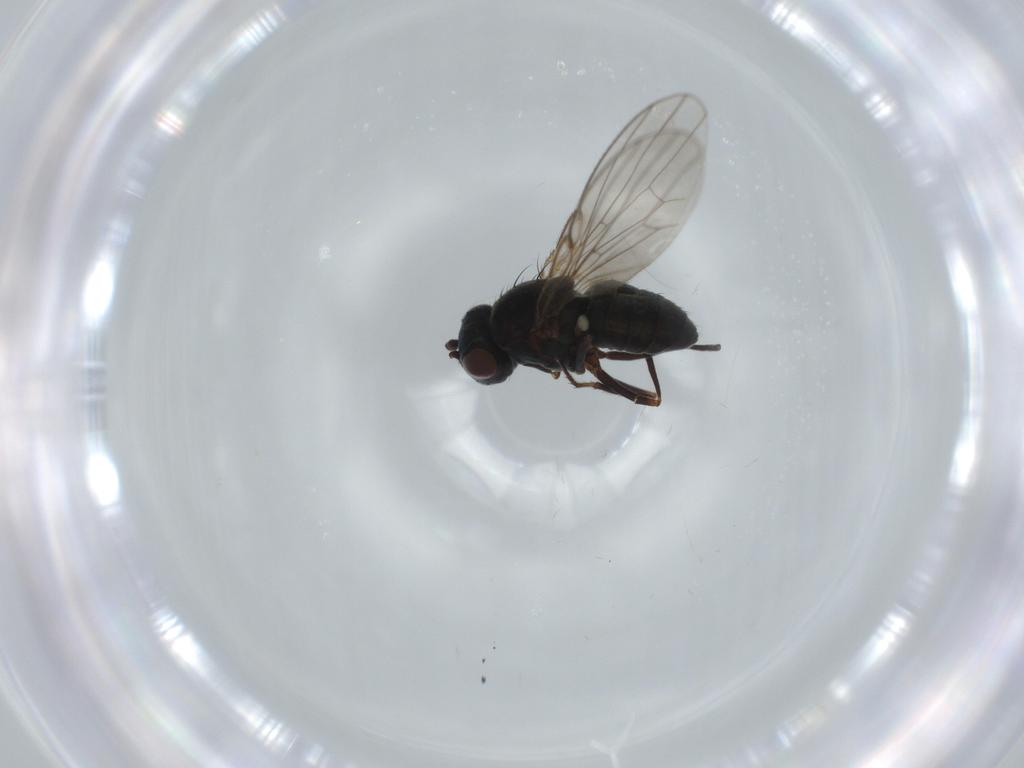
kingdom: Animalia
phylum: Arthropoda
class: Insecta
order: Diptera
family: Ephydridae
